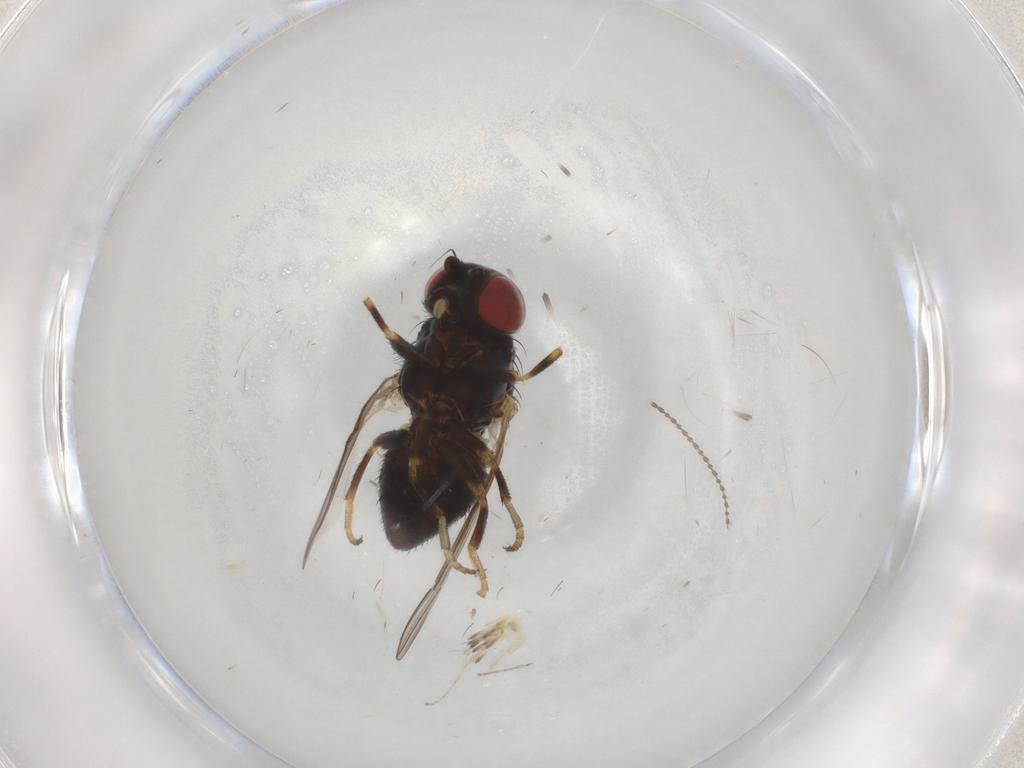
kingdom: Animalia
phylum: Arthropoda
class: Insecta
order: Diptera
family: Chamaemyiidae
